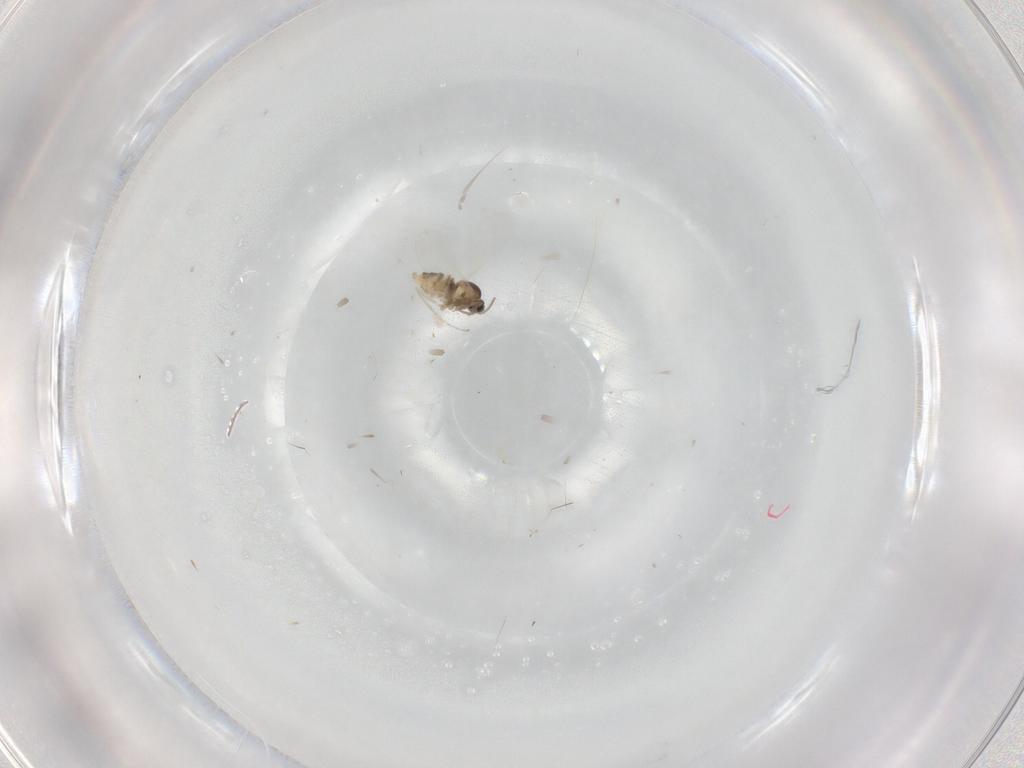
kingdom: Animalia
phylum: Arthropoda
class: Insecta
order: Diptera
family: Cecidomyiidae
